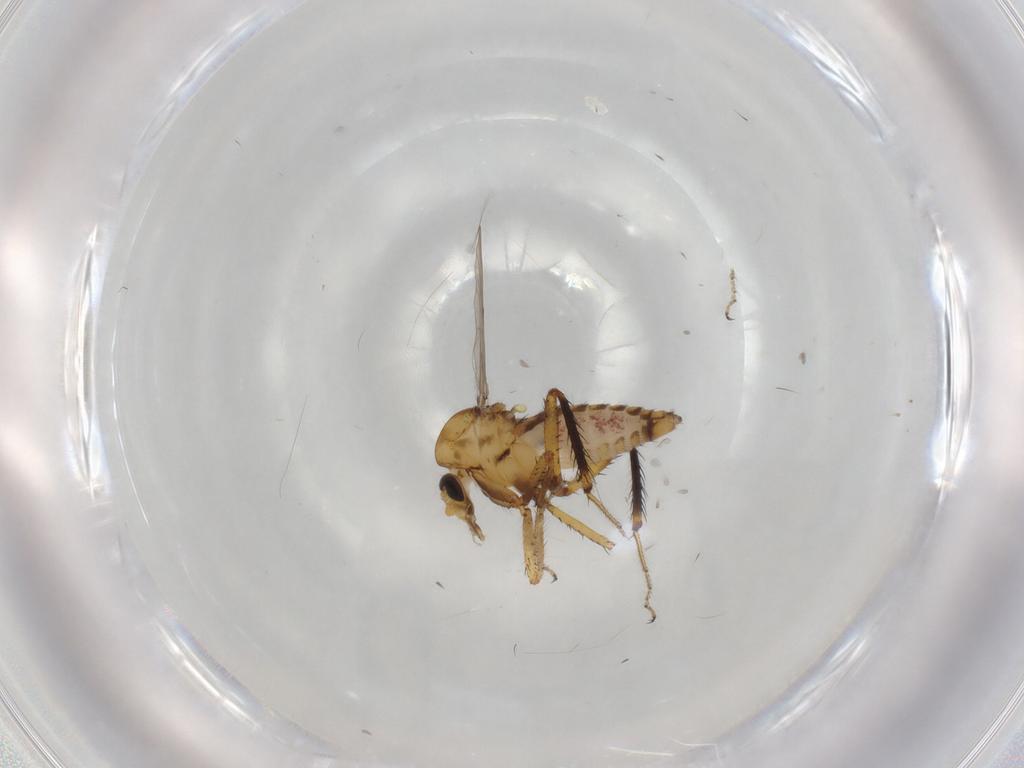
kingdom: Animalia
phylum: Arthropoda
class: Insecta
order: Diptera
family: Ceratopogonidae
